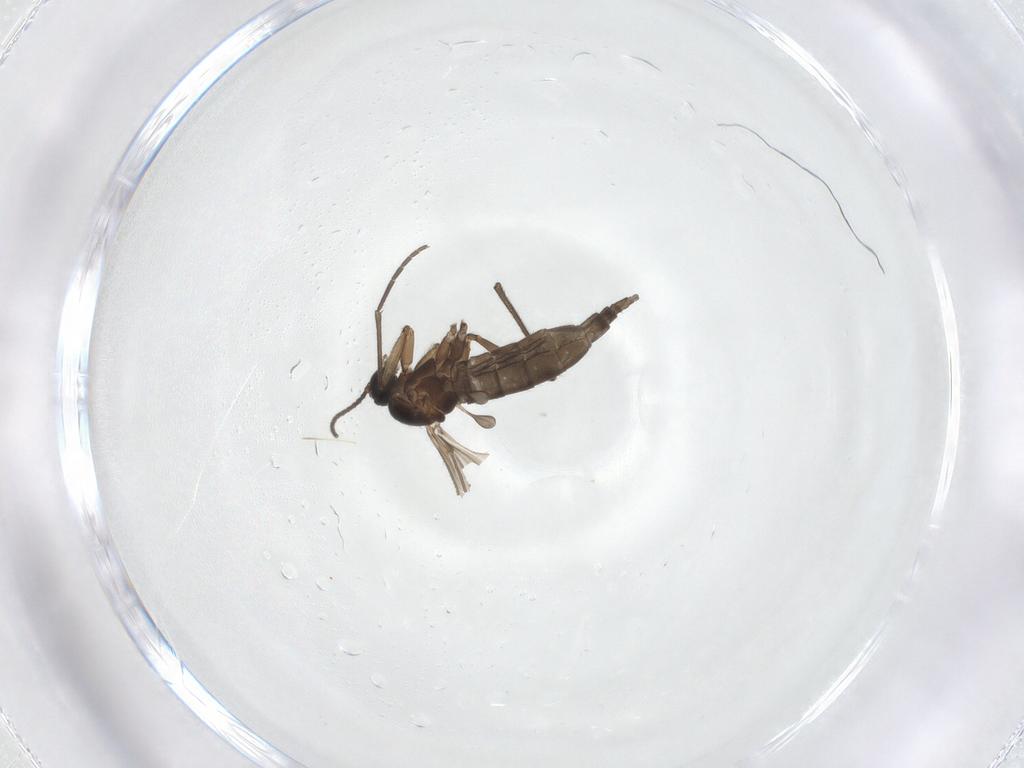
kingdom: Animalia
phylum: Arthropoda
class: Insecta
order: Diptera
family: Sciaridae
